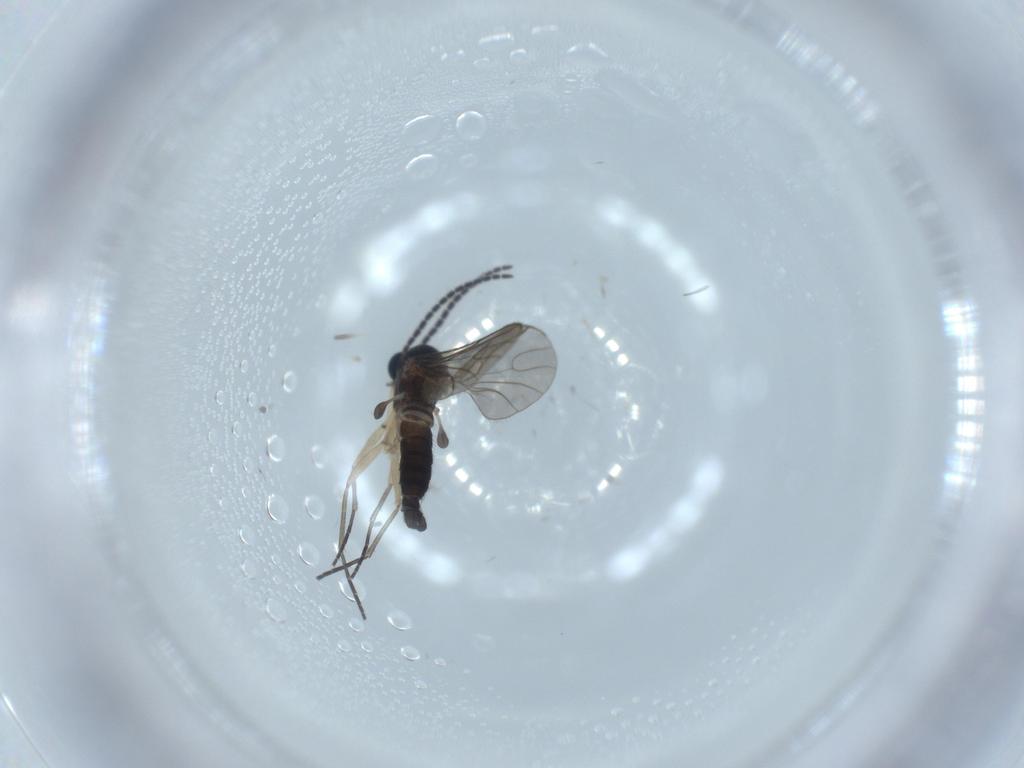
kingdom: Animalia
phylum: Arthropoda
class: Insecta
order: Diptera
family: Sciaridae
